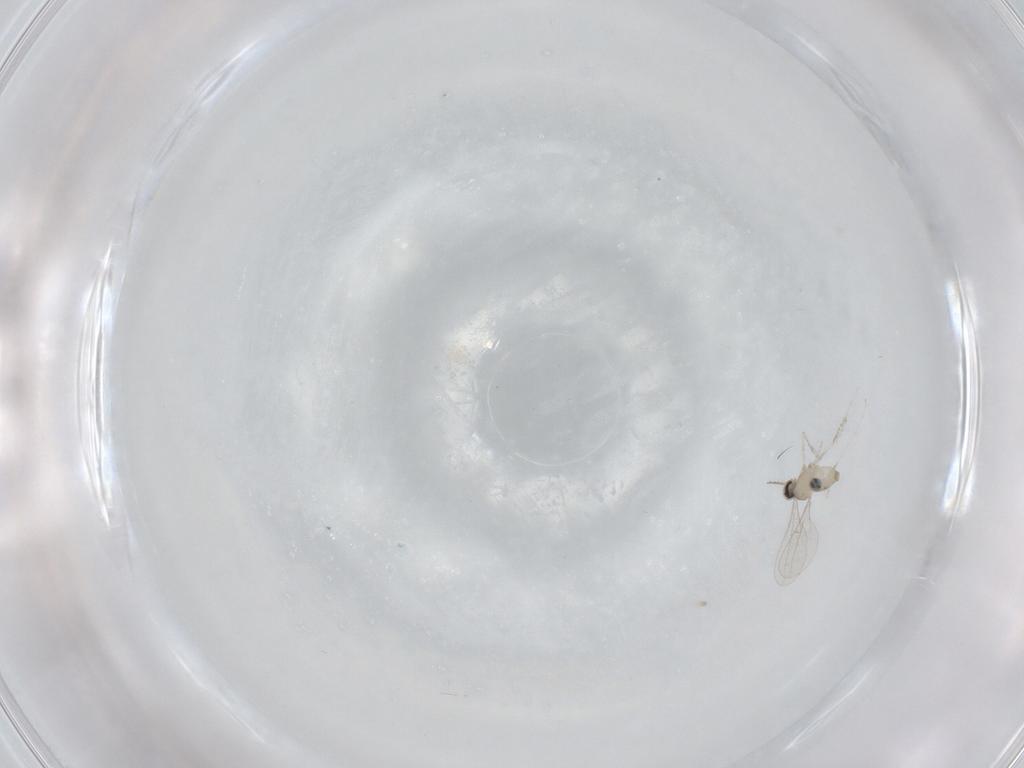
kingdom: Animalia
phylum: Arthropoda
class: Insecta
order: Diptera
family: Cecidomyiidae
